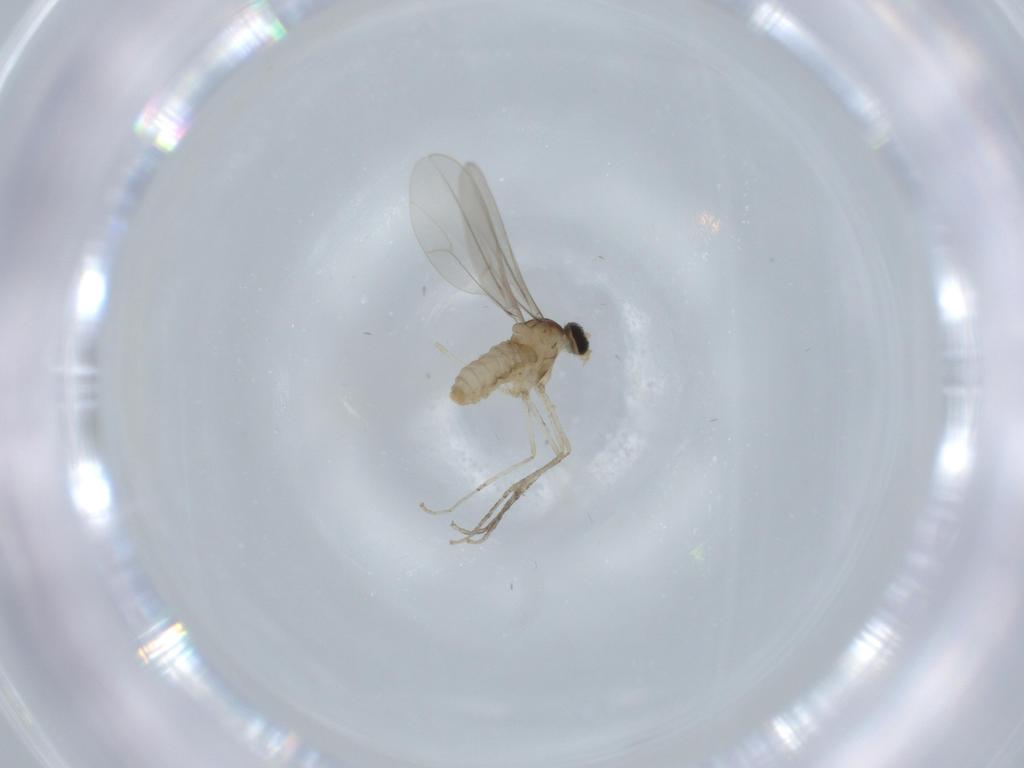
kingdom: Animalia
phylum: Arthropoda
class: Insecta
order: Diptera
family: Cecidomyiidae
